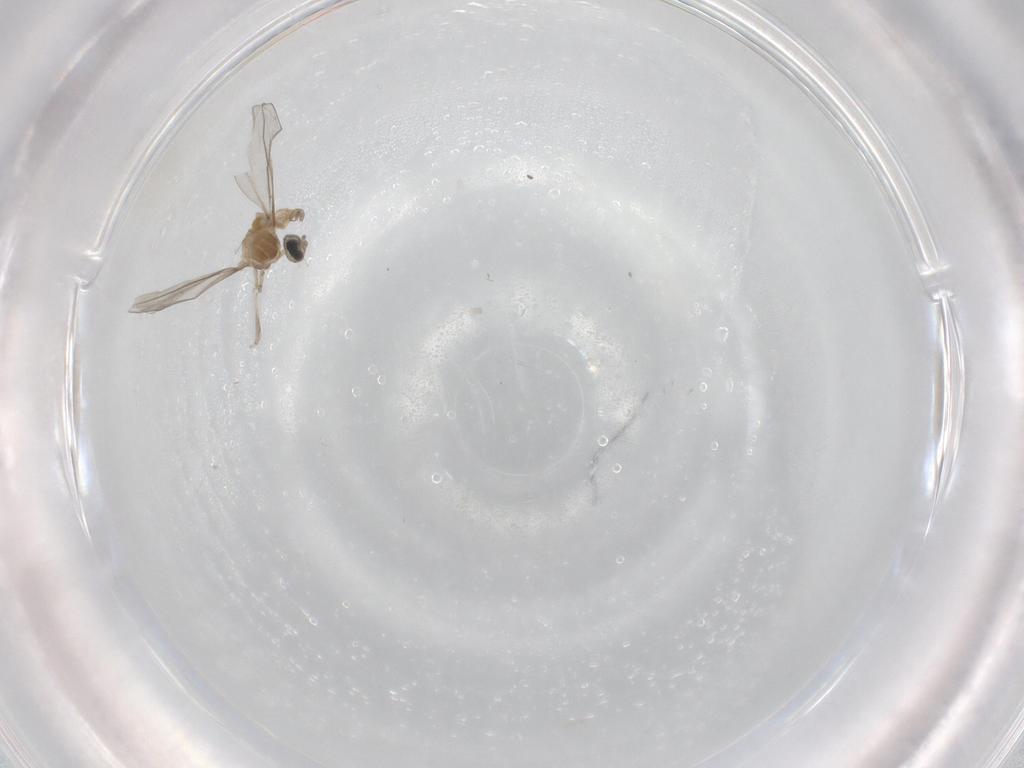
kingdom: Animalia
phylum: Arthropoda
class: Insecta
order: Diptera
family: Cecidomyiidae
